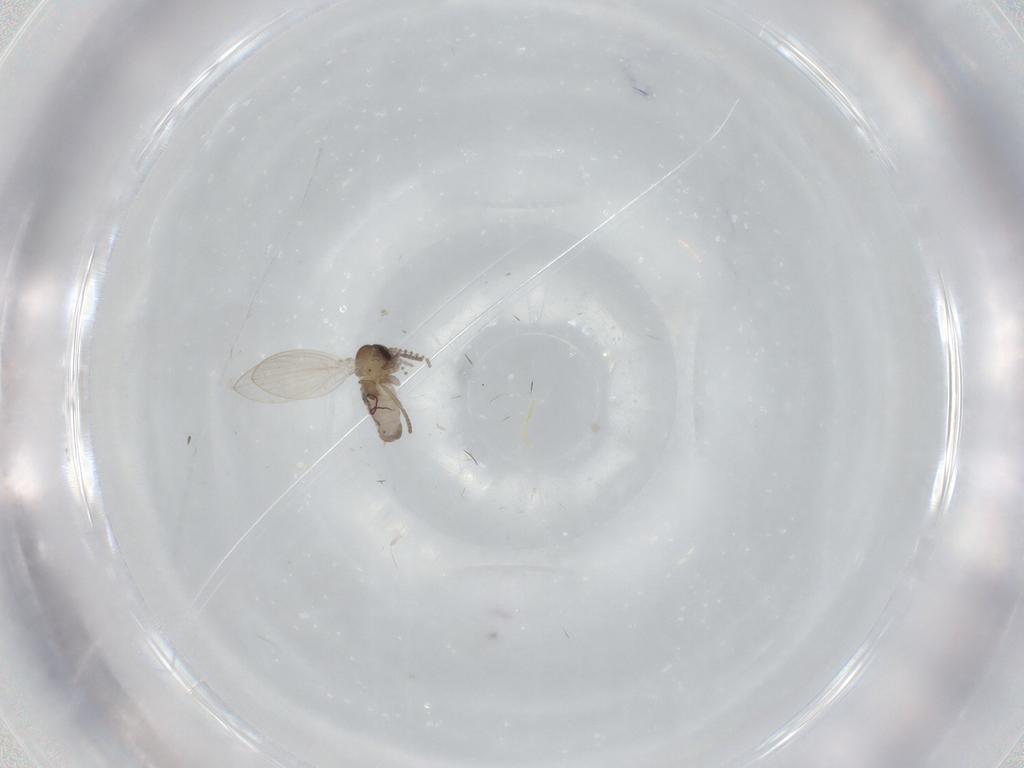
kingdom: Animalia
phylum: Arthropoda
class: Insecta
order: Diptera
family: Psychodidae
